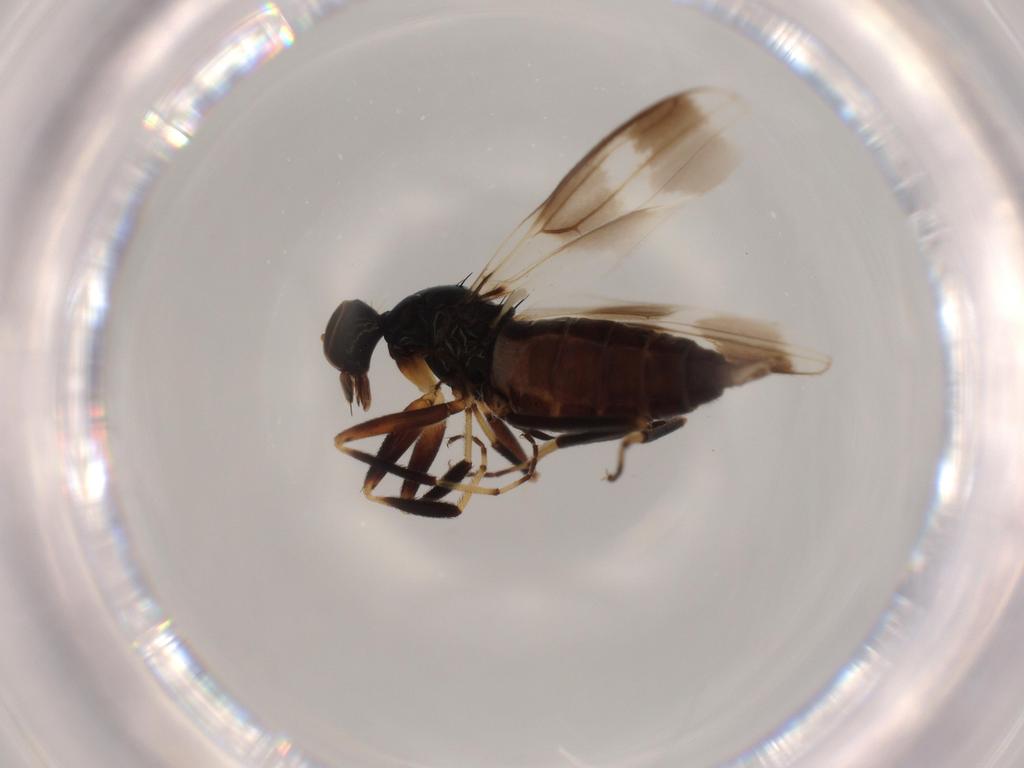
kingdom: Animalia
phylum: Arthropoda
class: Insecta
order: Diptera
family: Hybotidae
